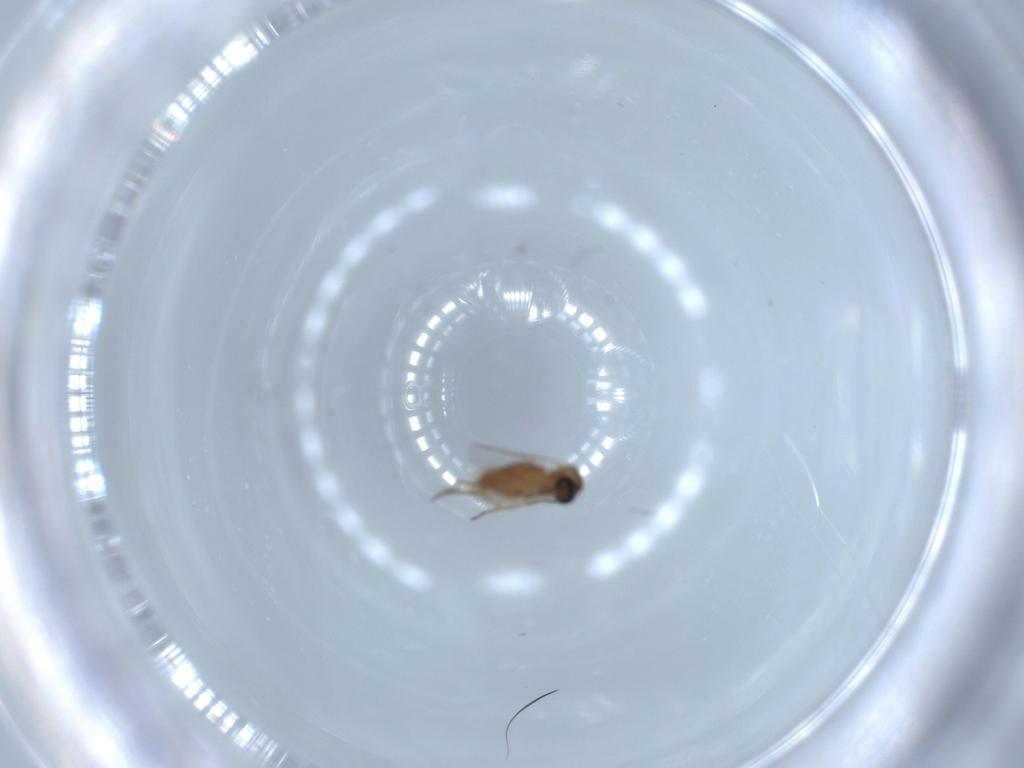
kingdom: Animalia
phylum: Arthropoda
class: Insecta
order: Diptera
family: Ceratopogonidae
